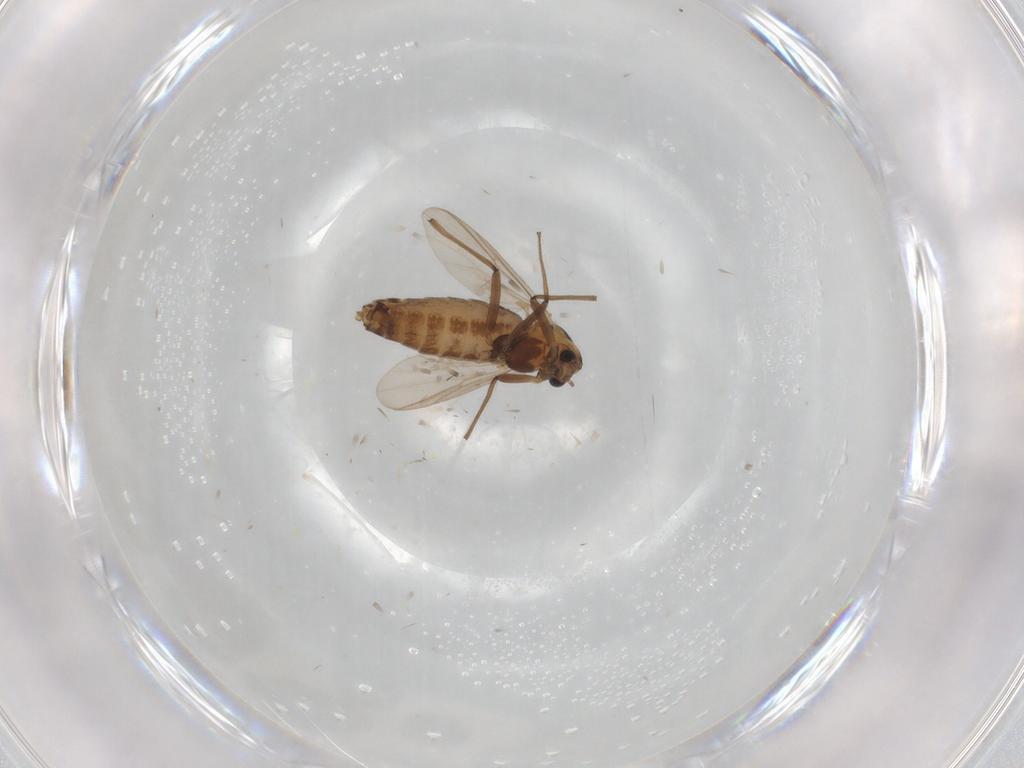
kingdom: Animalia
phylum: Arthropoda
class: Insecta
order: Diptera
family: Chironomidae
